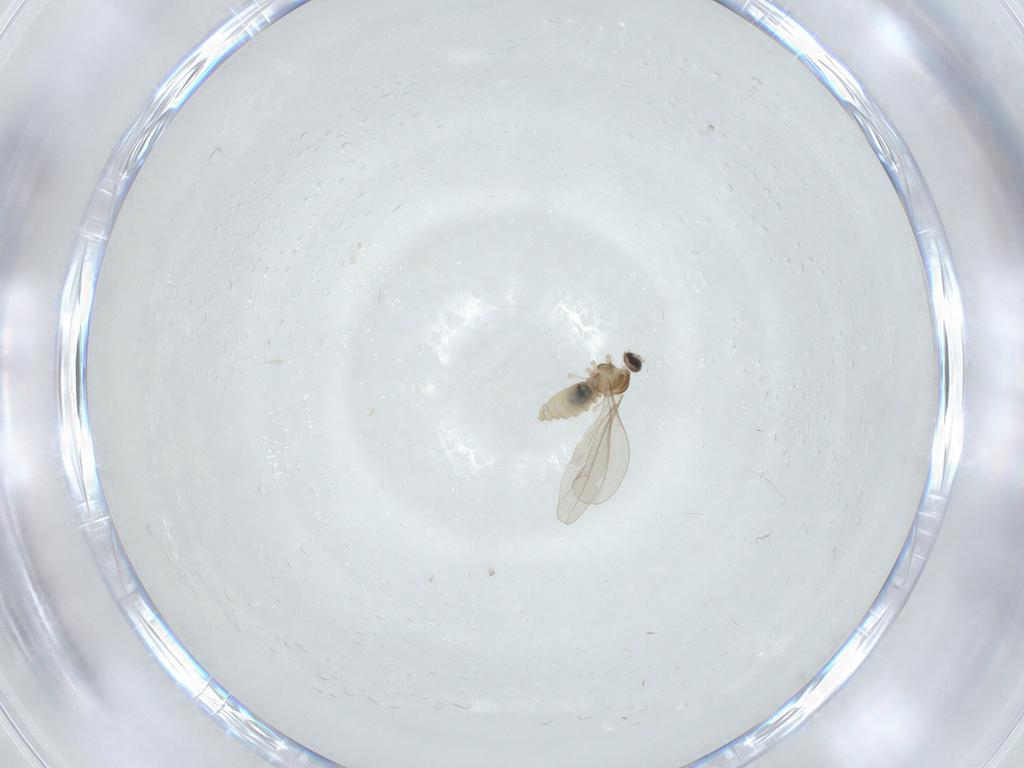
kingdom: Animalia
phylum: Arthropoda
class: Insecta
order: Diptera
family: Cecidomyiidae
